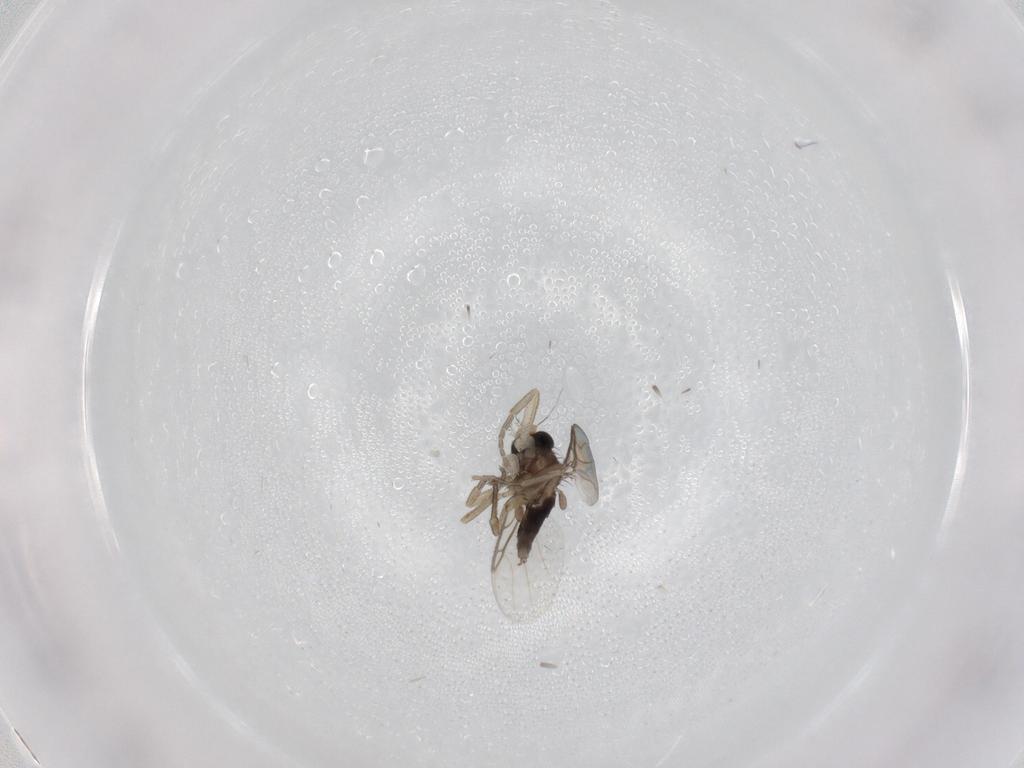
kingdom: Animalia
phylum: Arthropoda
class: Insecta
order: Diptera
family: Phoridae
